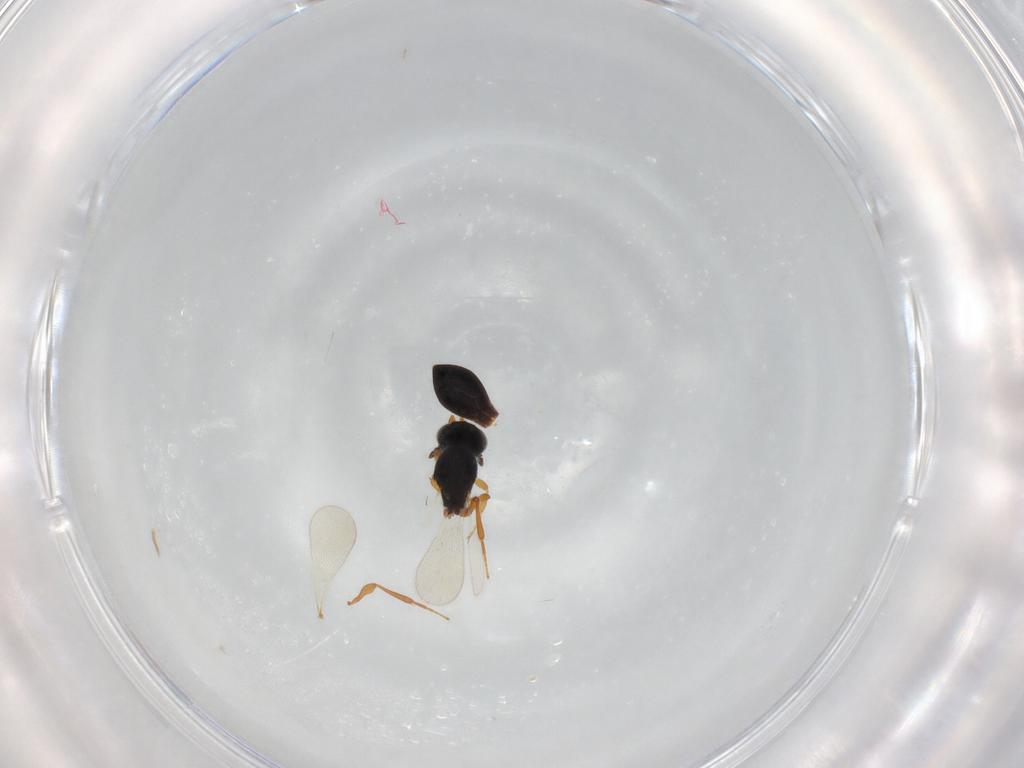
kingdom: Animalia
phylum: Arthropoda
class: Insecta
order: Hymenoptera
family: Platygastridae
